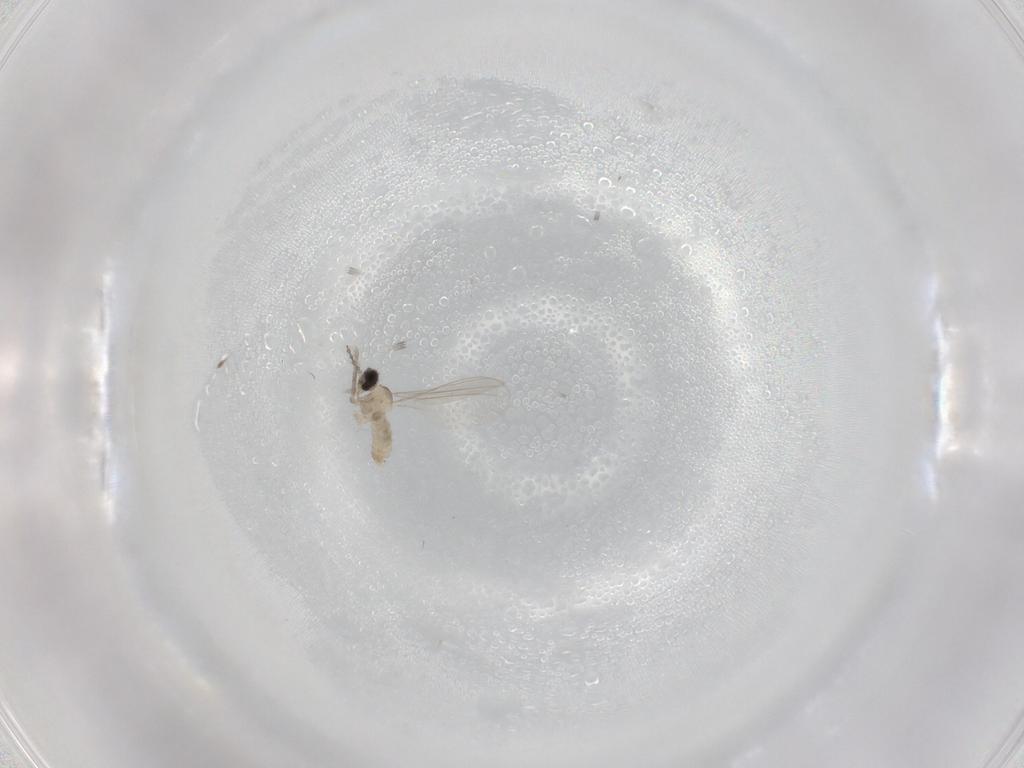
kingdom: Animalia
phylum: Arthropoda
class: Insecta
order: Diptera
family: Cecidomyiidae
